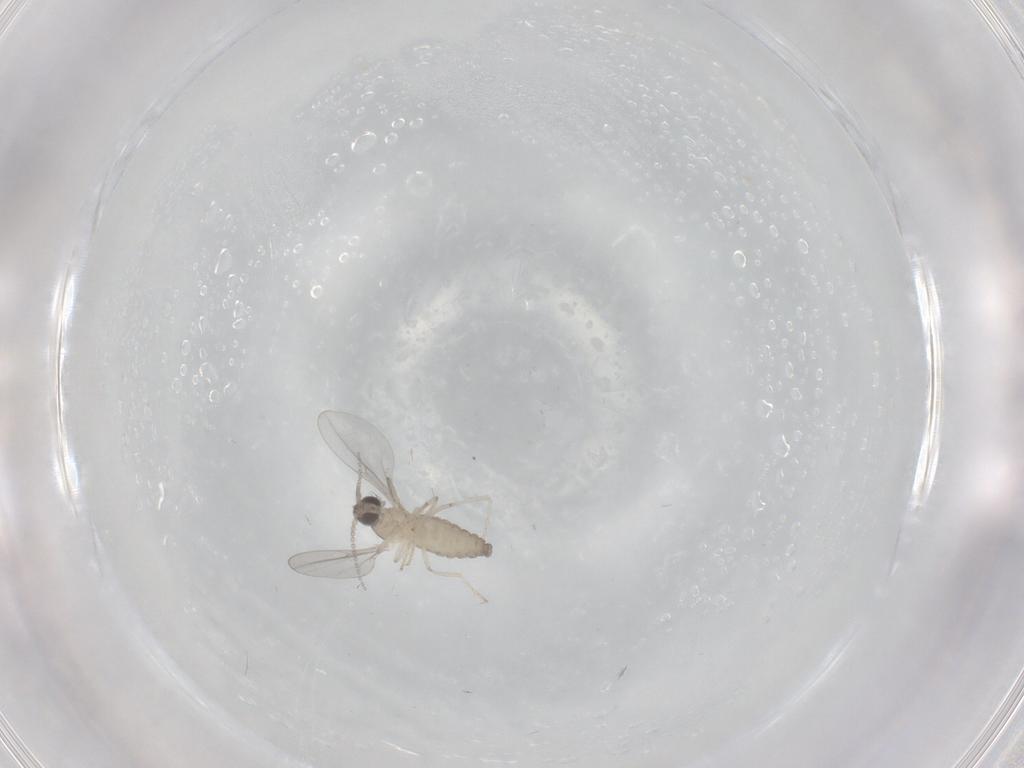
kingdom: Animalia
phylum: Arthropoda
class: Insecta
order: Diptera
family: Cecidomyiidae
